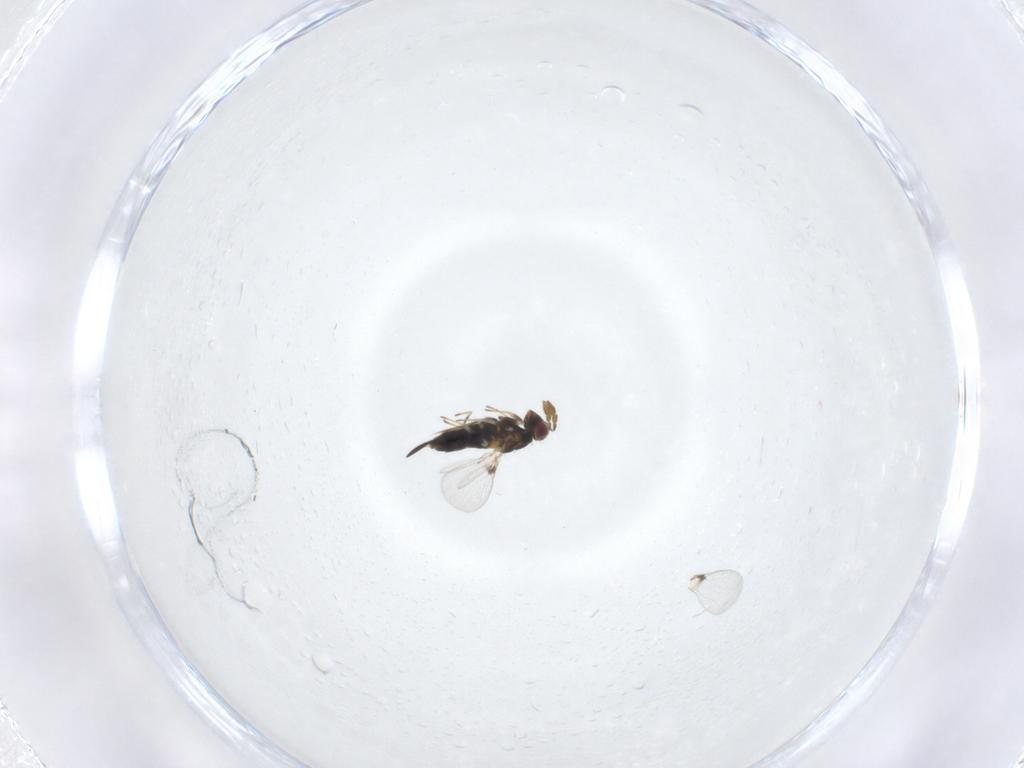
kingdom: Animalia
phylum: Arthropoda
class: Insecta
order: Hymenoptera
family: Trichogrammatidae
